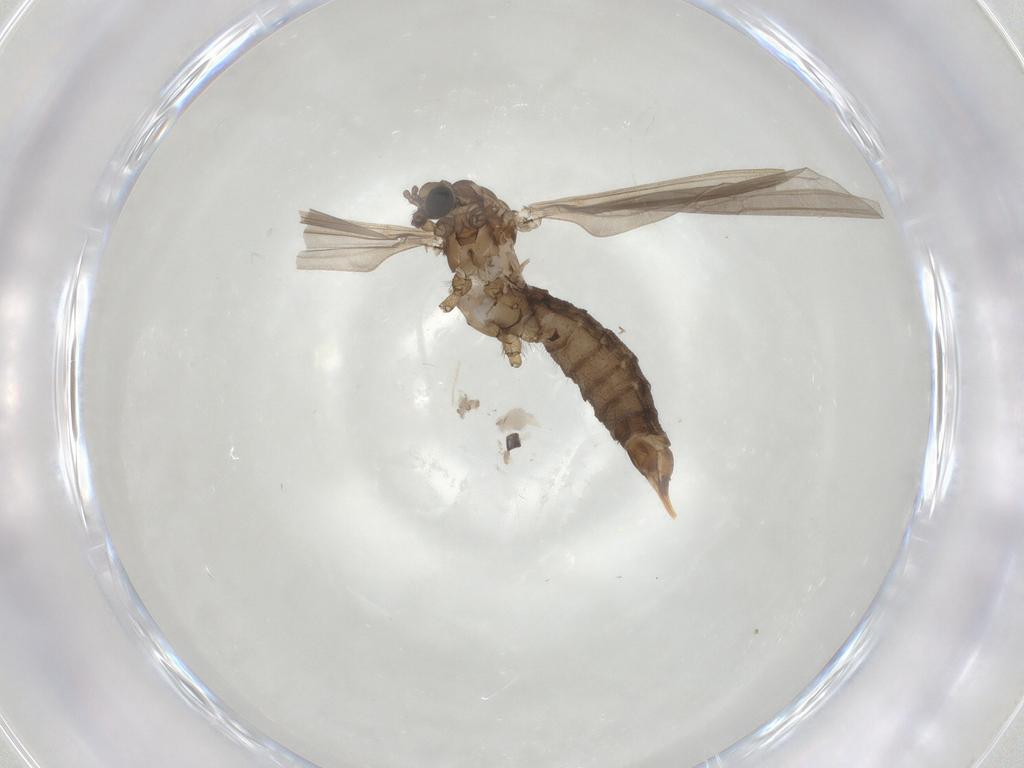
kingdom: Animalia
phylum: Arthropoda
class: Insecta
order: Diptera
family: Limoniidae
